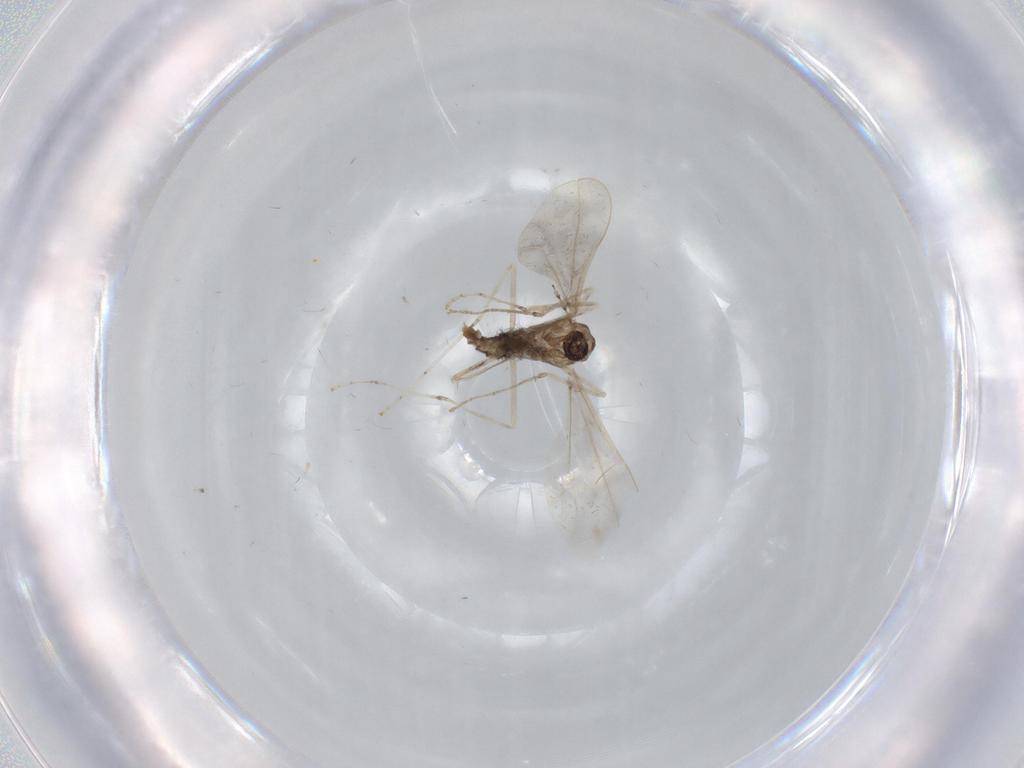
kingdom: Animalia
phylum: Arthropoda
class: Insecta
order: Diptera
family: Cecidomyiidae
